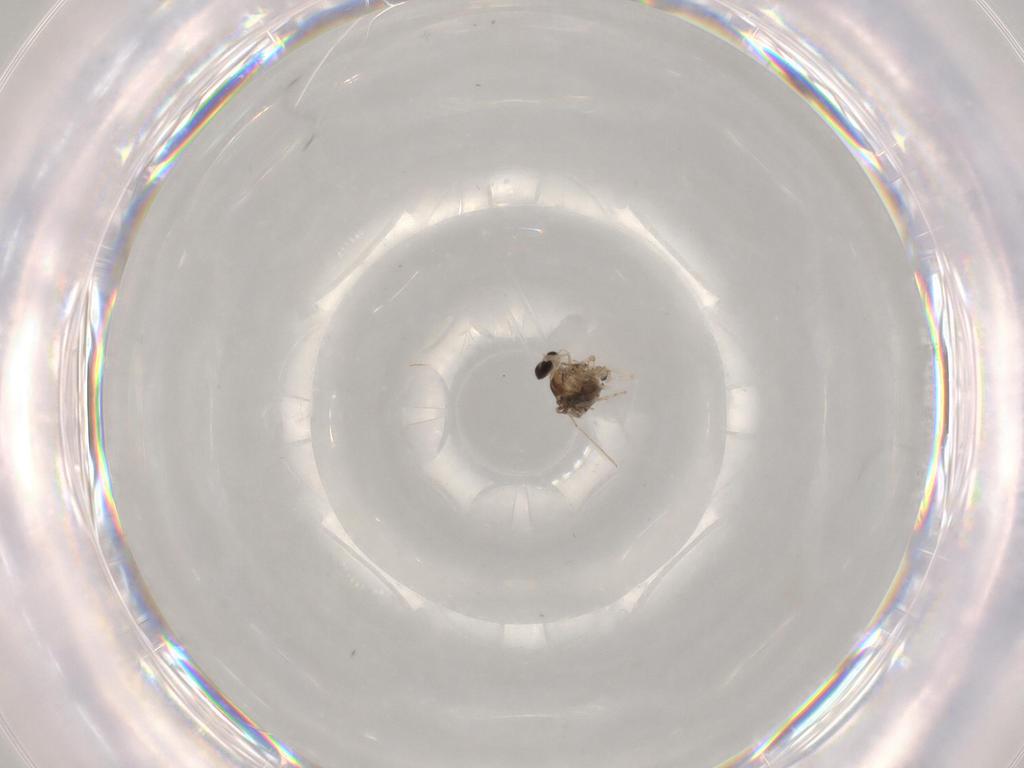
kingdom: Animalia
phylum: Arthropoda
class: Insecta
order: Diptera
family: Cecidomyiidae
